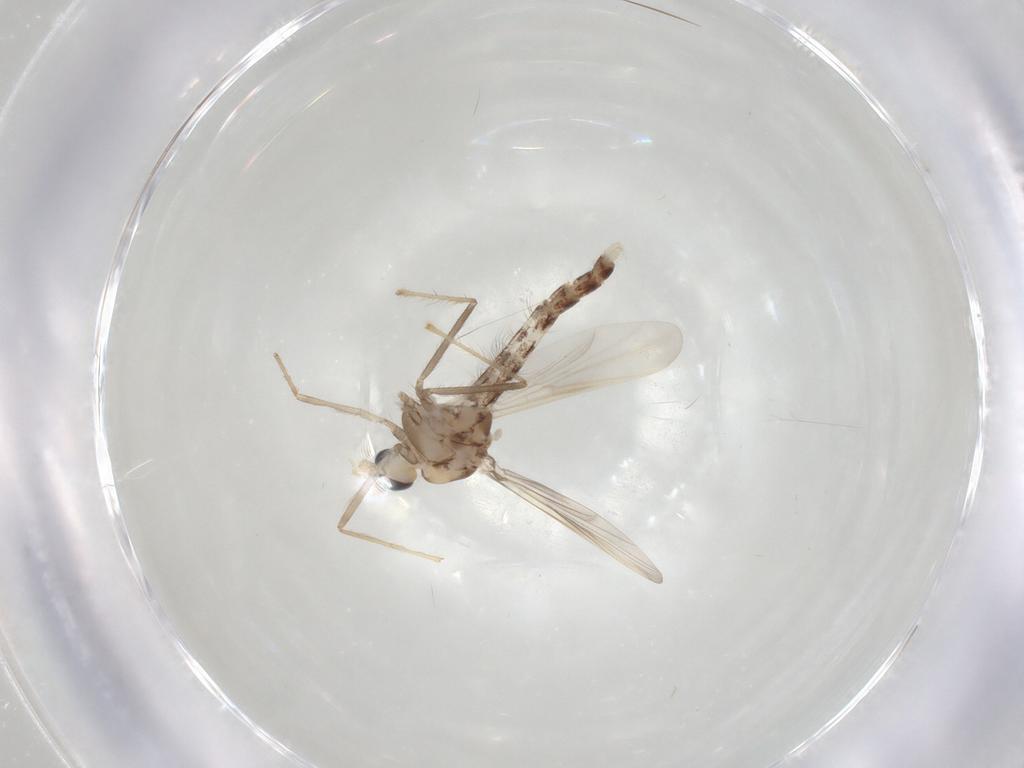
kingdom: Animalia
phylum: Arthropoda
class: Insecta
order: Diptera
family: Chironomidae
